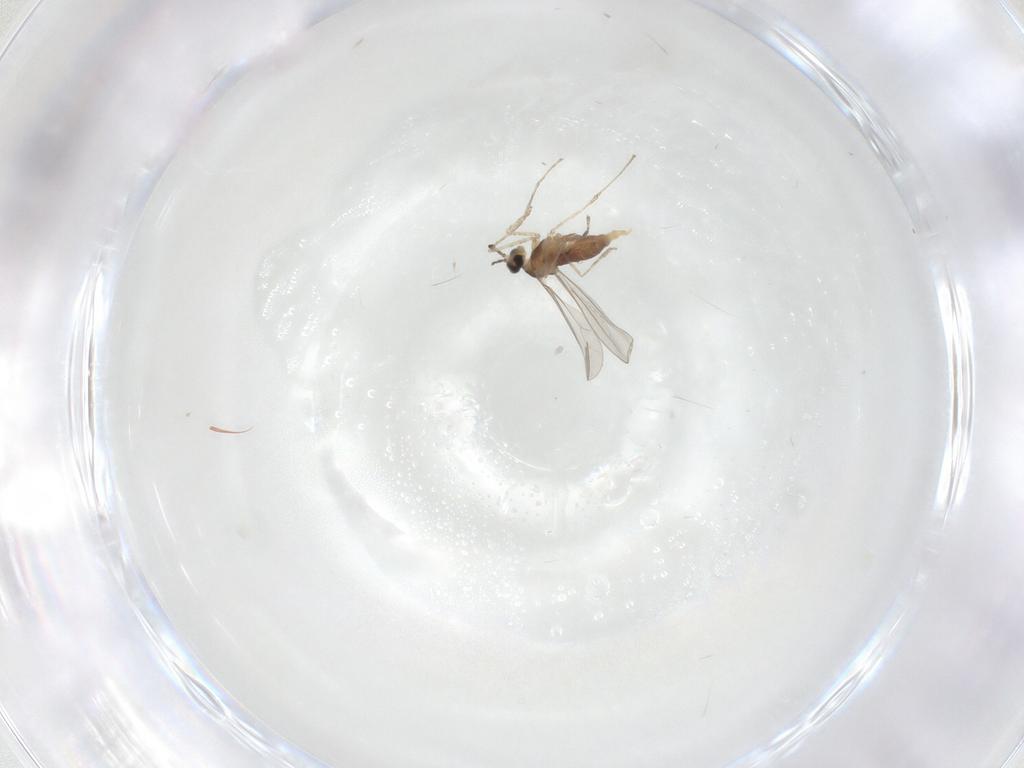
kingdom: Animalia
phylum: Arthropoda
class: Insecta
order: Diptera
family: Cecidomyiidae
